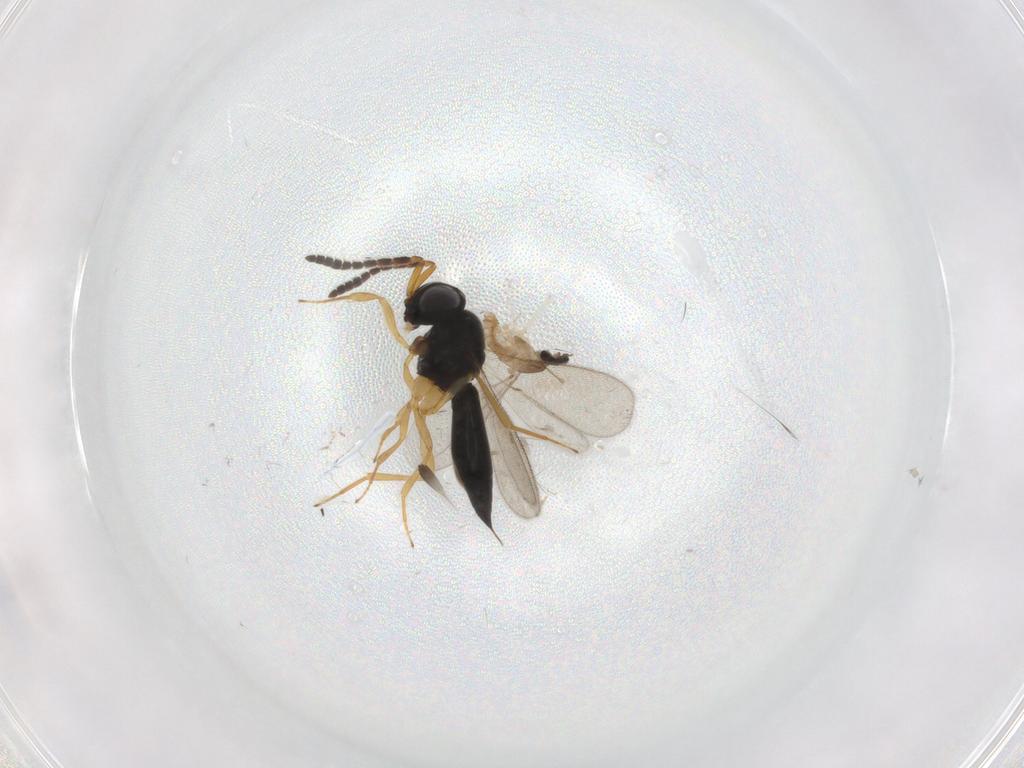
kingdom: Animalia
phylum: Arthropoda
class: Insecta
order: Diptera
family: Cecidomyiidae
